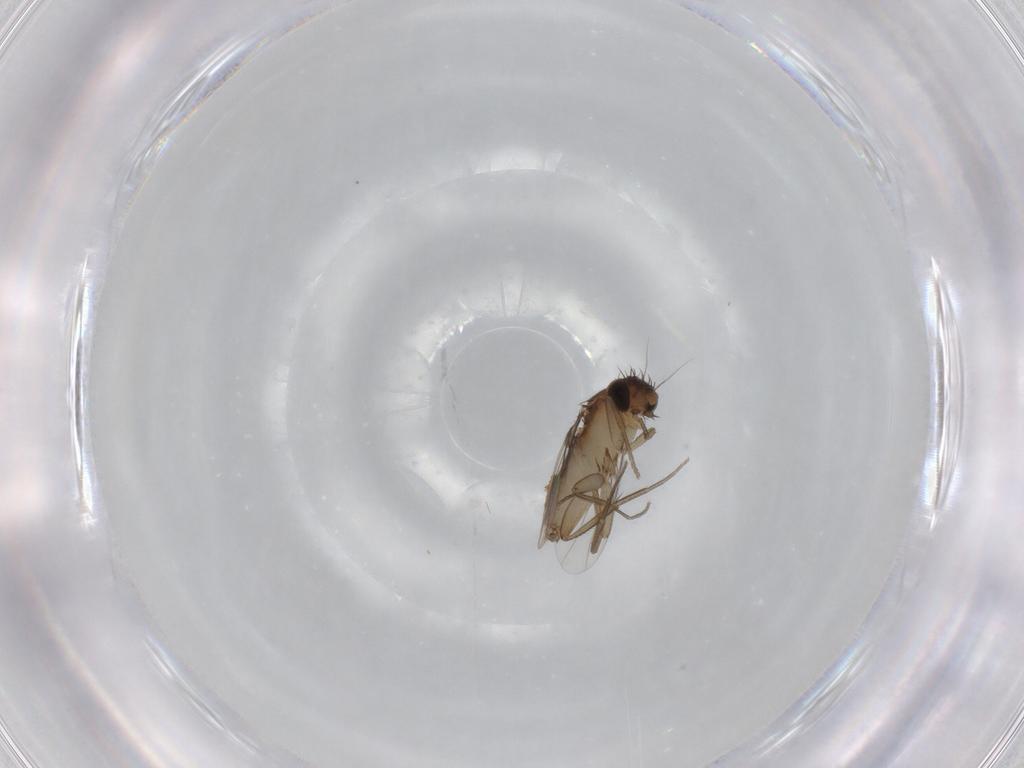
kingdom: Animalia
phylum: Arthropoda
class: Insecta
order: Diptera
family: Phoridae
